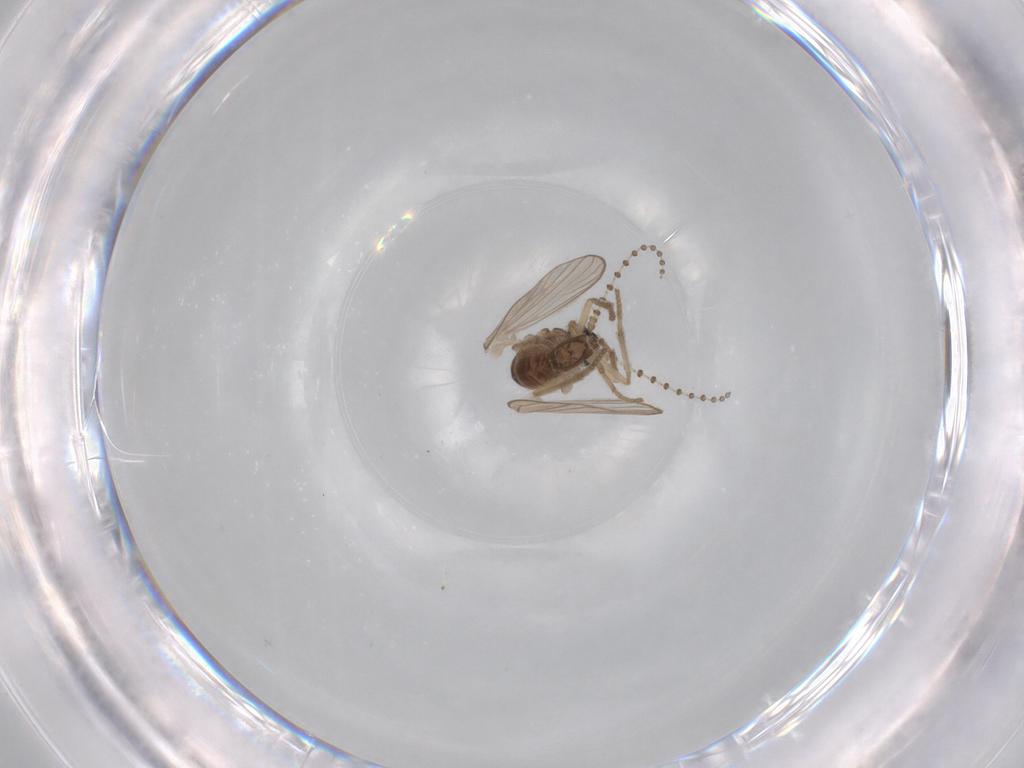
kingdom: Animalia
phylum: Arthropoda
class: Insecta
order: Diptera
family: Psychodidae
